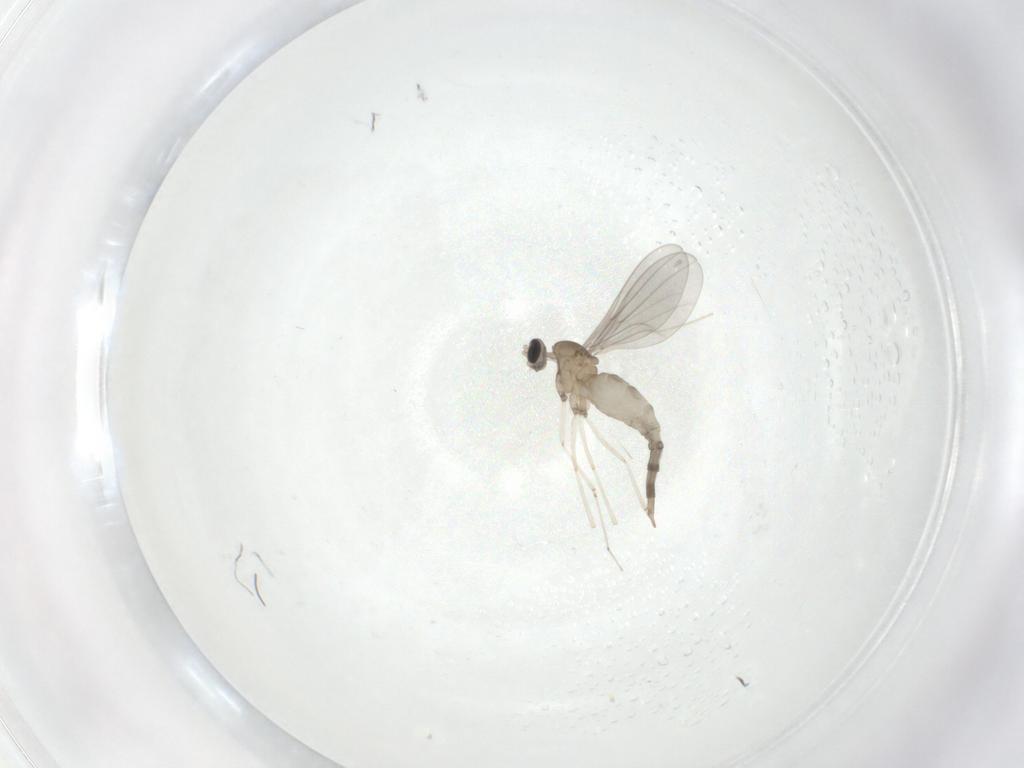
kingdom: Animalia
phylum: Arthropoda
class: Insecta
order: Diptera
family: Cecidomyiidae
